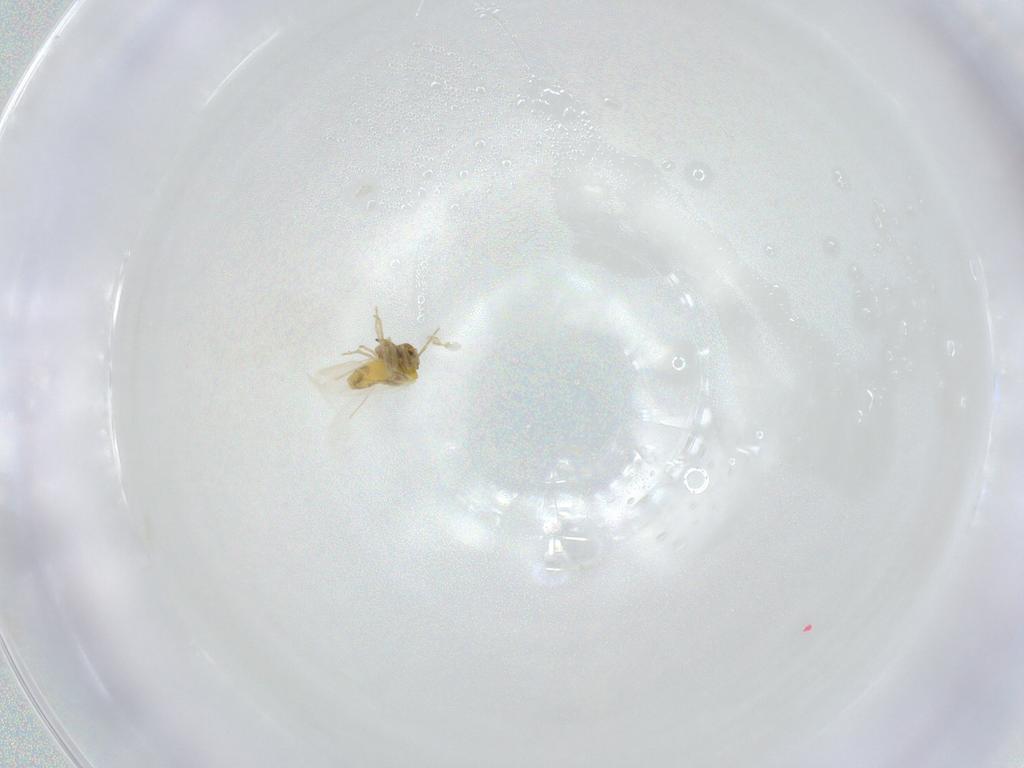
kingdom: Animalia
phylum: Arthropoda
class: Insecta
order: Hemiptera
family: Aleyrodidae
